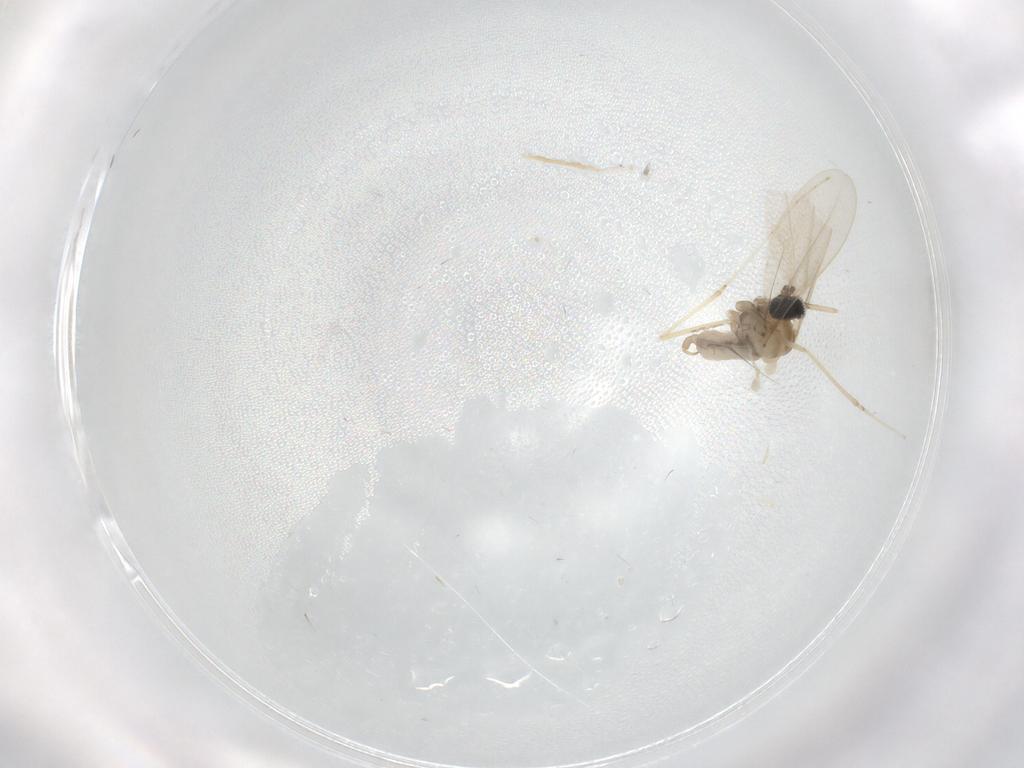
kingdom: Animalia
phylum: Arthropoda
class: Insecta
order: Diptera
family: Cecidomyiidae
